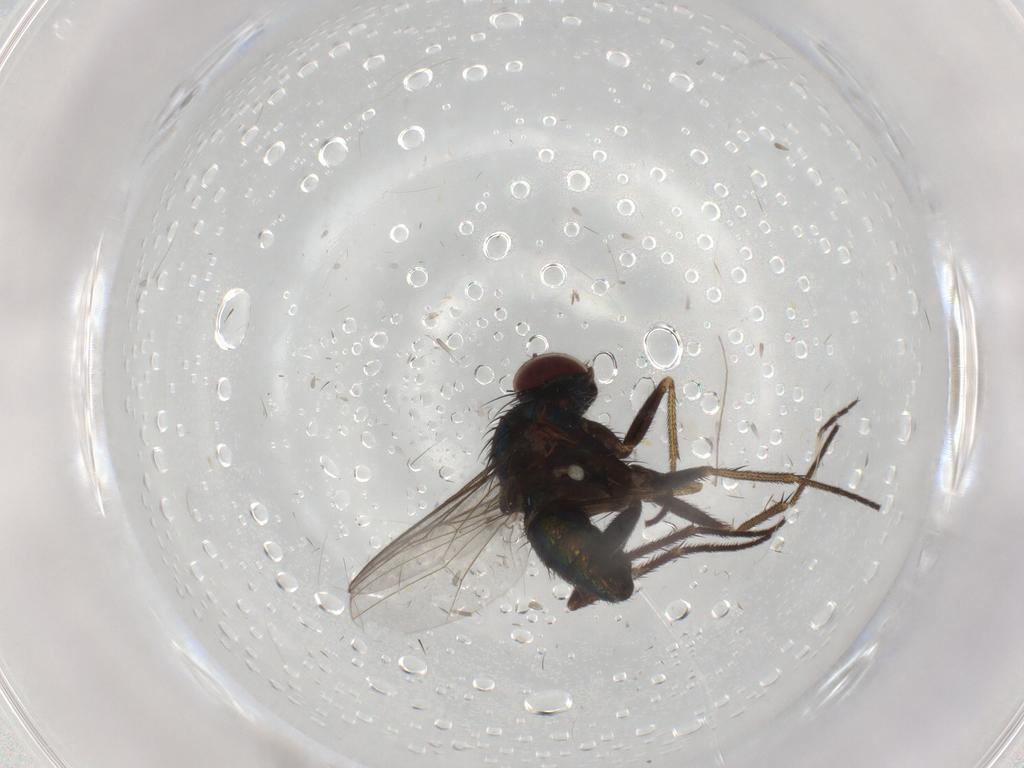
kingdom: Animalia
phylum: Arthropoda
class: Insecta
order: Diptera
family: Dolichopodidae
